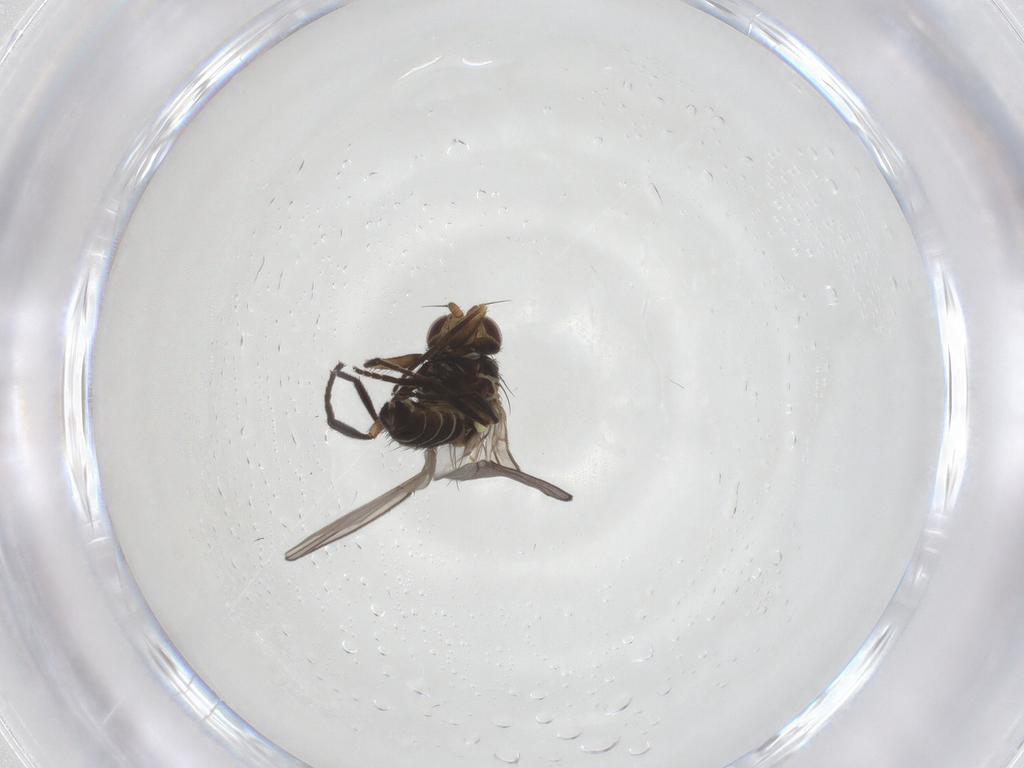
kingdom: Animalia
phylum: Arthropoda
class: Insecta
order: Diptera
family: Agromyzidae
